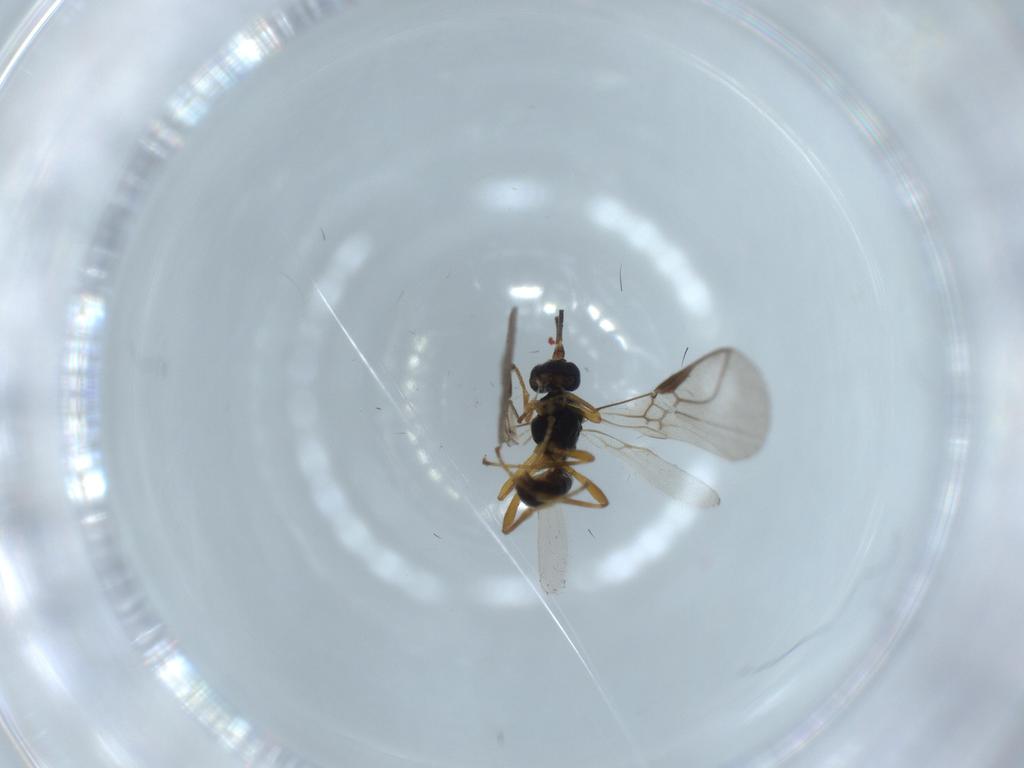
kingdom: Animalia
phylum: Arthropoda
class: Insecta
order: Hymenoptera
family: Braconidae
